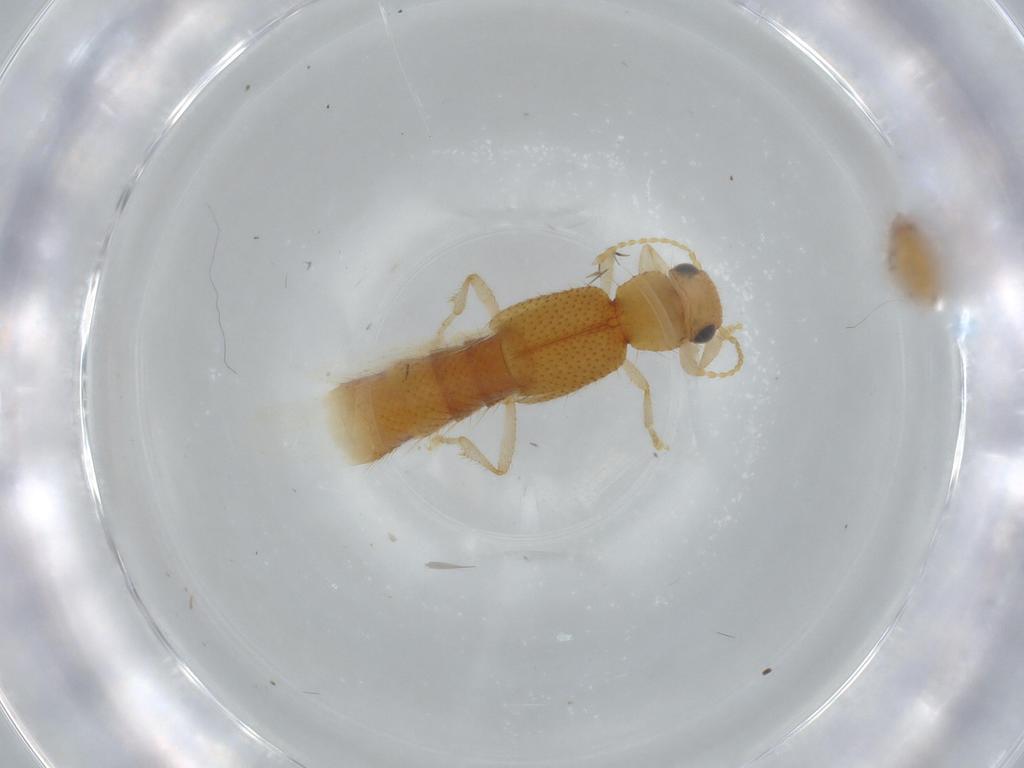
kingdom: Animalia
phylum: Arthropoda
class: Insecta
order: Coleoptera
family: Staphylinidae
